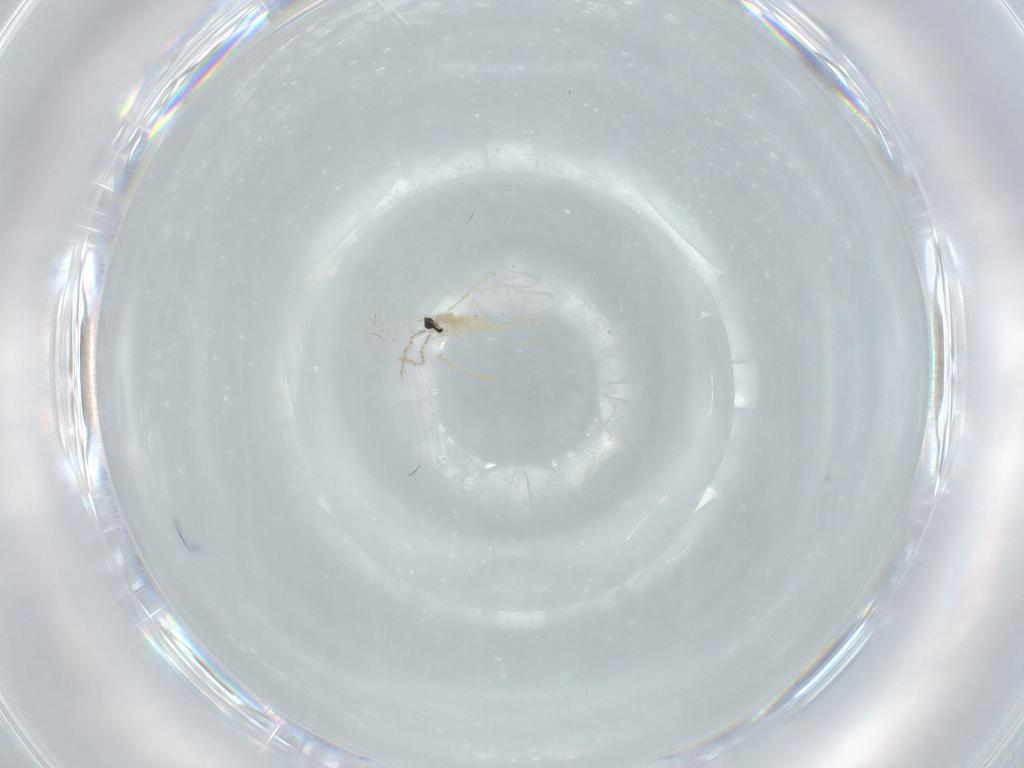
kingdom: Animalia
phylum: Arthropoda
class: Insecta
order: Diptera
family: Cecidomyiidae
